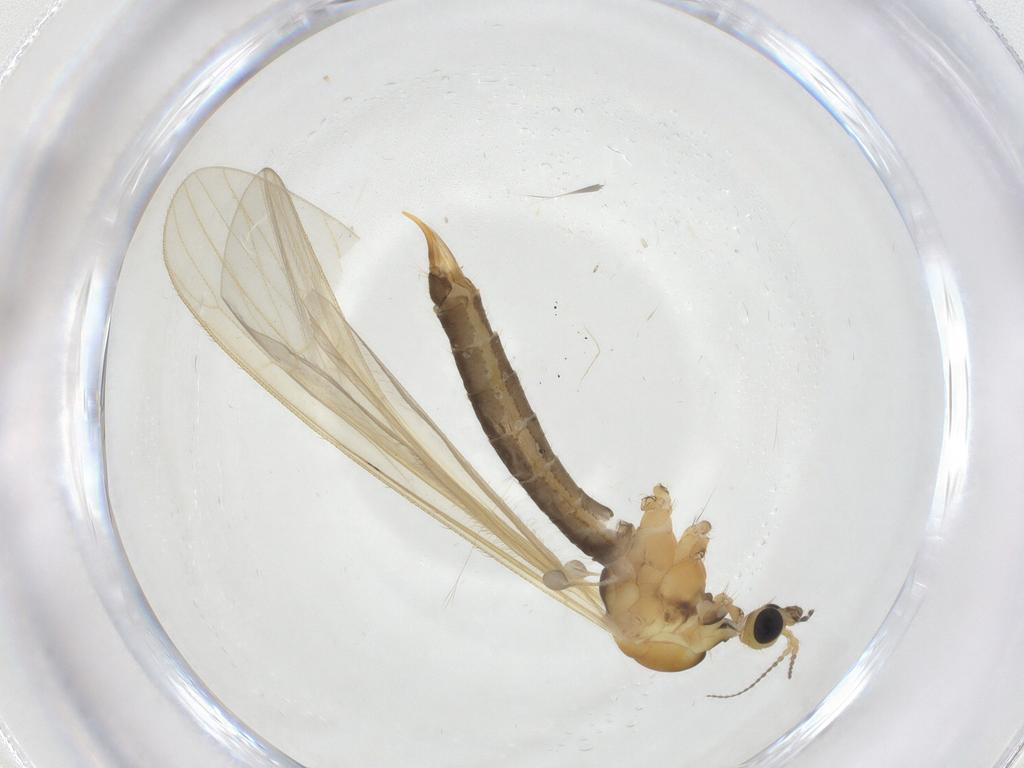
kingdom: Animalia
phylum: Arthropoda
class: Insecta
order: Diptera
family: Chironomidae
